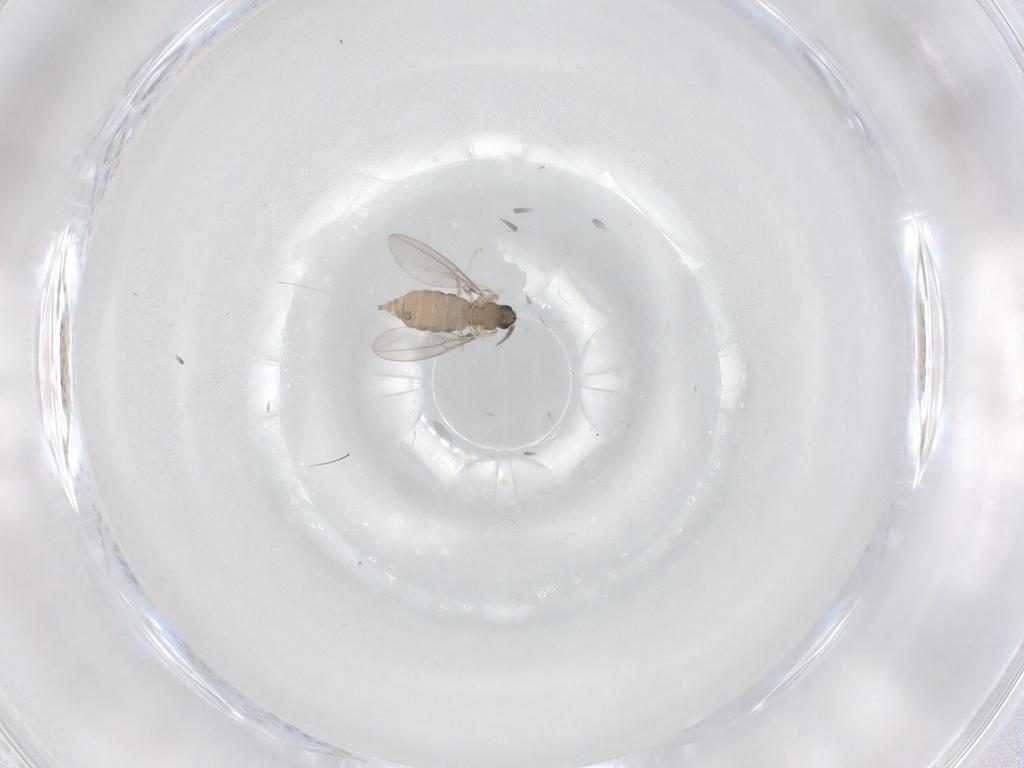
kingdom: Animalia
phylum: Arthropoda
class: Insecta
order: Diptera
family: Cecidomyiidae
